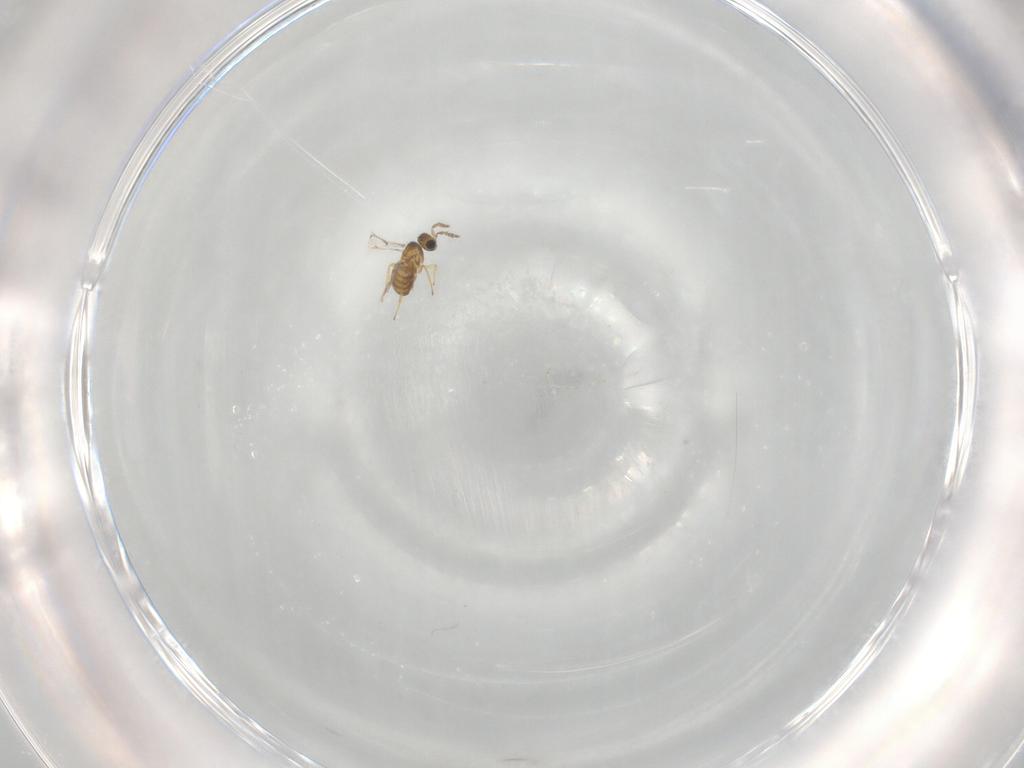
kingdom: Animalia
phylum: Arthropoda
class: Insecta
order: Hymenoptera
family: Trichogrammatidae
